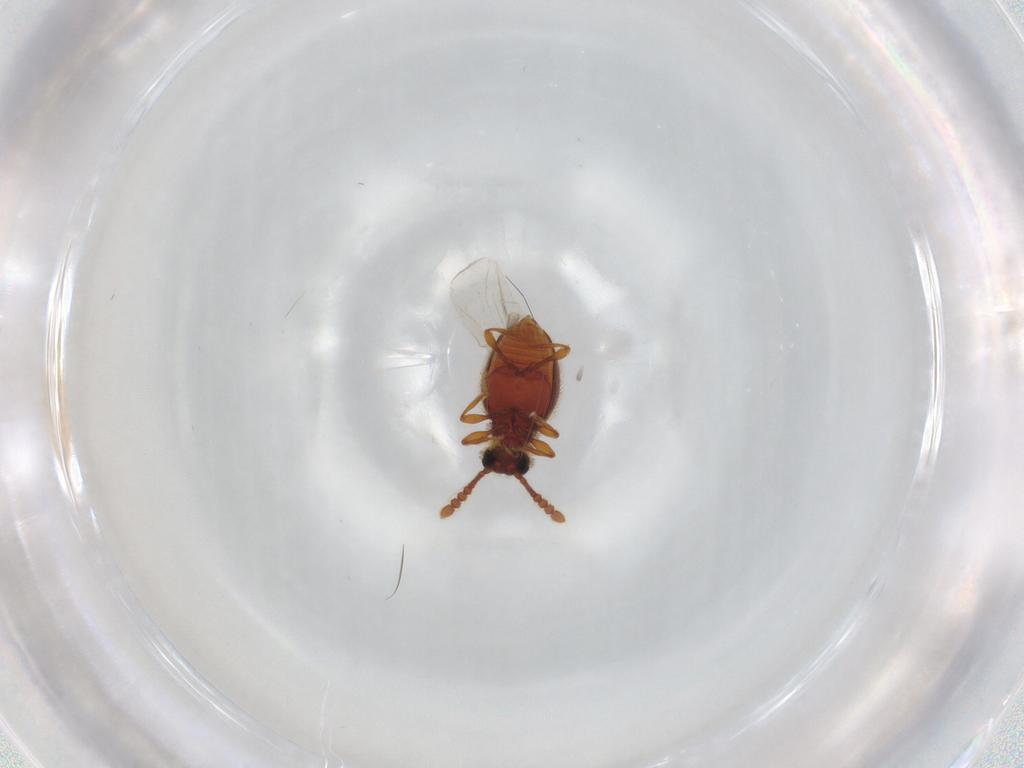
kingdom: Animalia
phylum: Arthropoda
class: Insecta
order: Coleoptera
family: Staphylinidae
